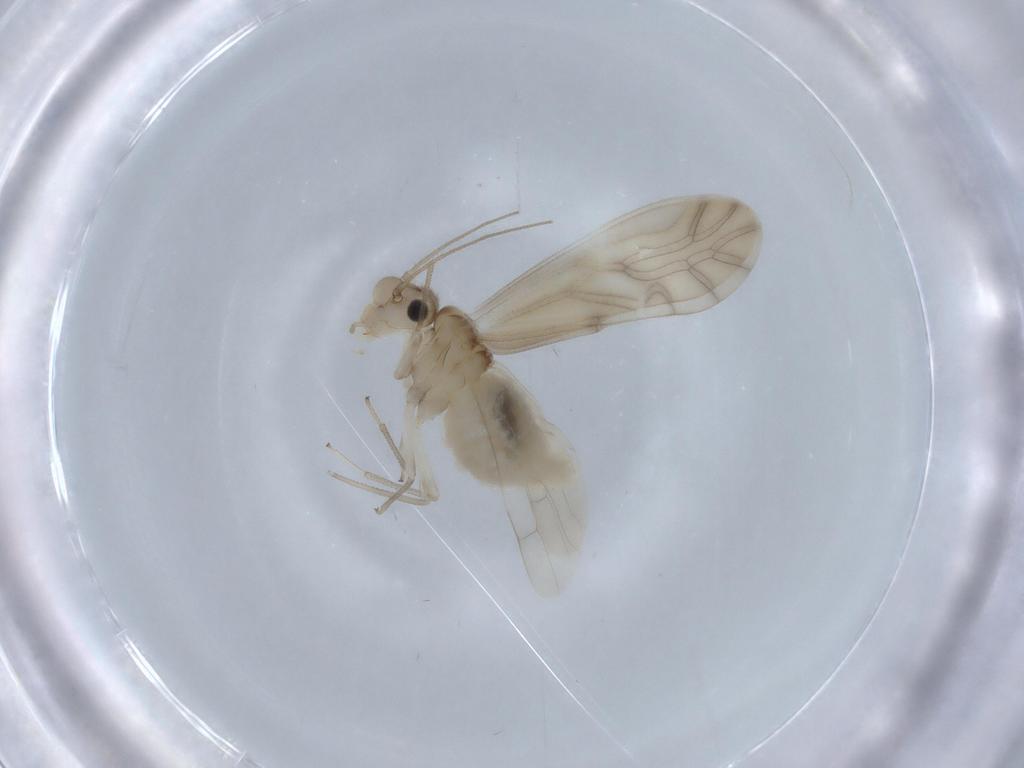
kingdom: Animalia
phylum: Arthropoda
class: Insecta
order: Psocodea
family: Caeciliusidae
